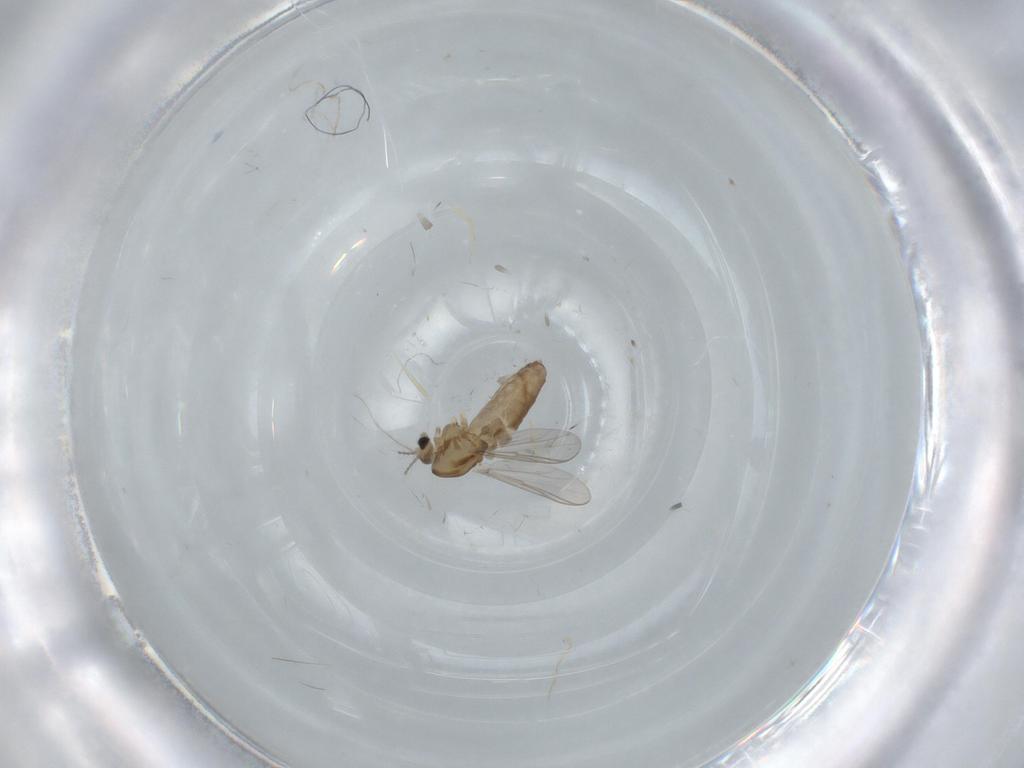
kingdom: Animalia
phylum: Arthropoda
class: Insecta
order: Diptera
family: Chironomidae
